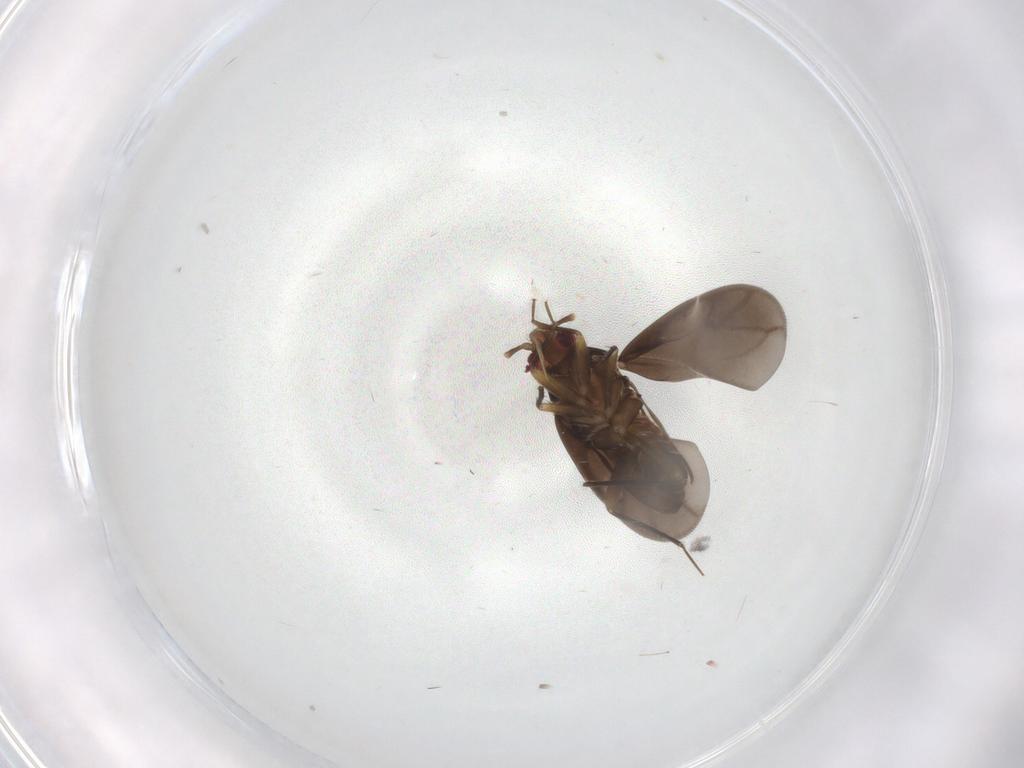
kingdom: Animalia
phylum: Arthropoda
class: Insecta
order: Hemiptera
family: Ceratocombidae
